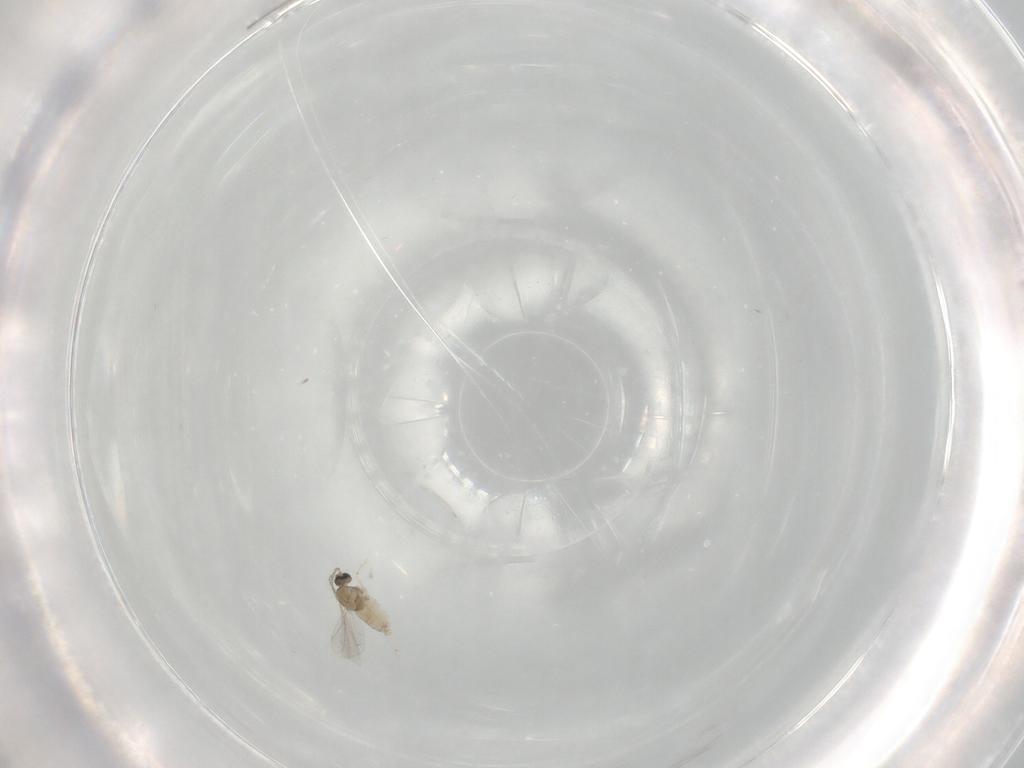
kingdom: Animalia
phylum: Arthropoda
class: Insecta
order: Diptera
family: Cecidomyiidae
